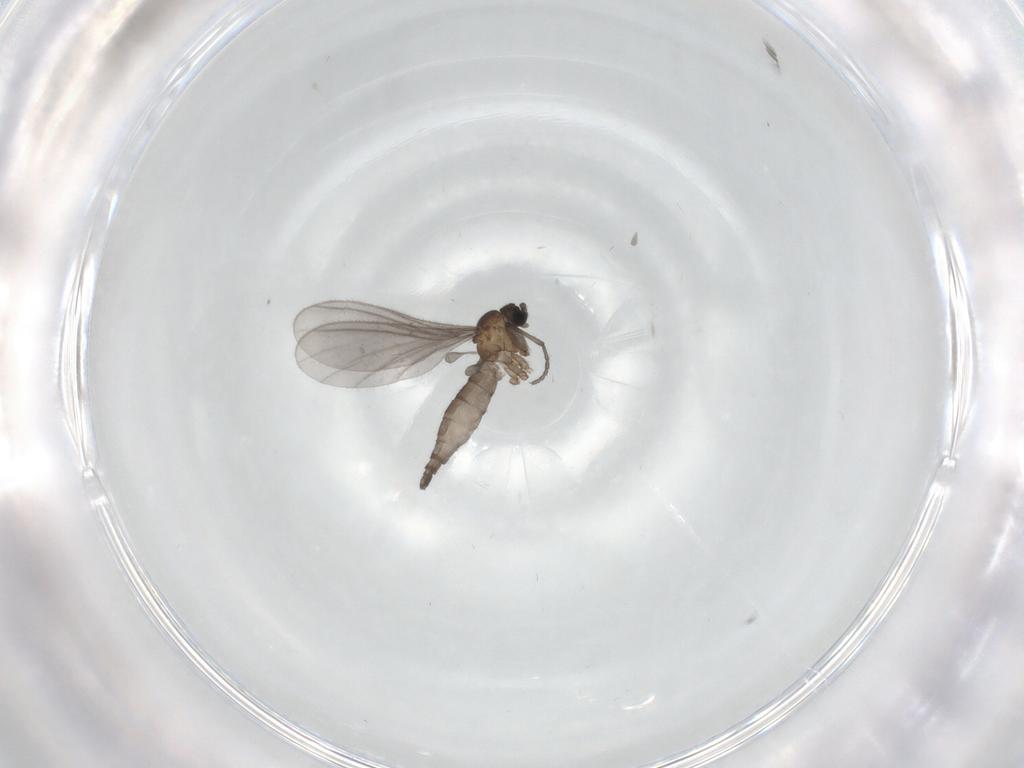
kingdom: Animalia
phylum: Arthropoda
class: Insecta
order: Diptera
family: Sciaridae
